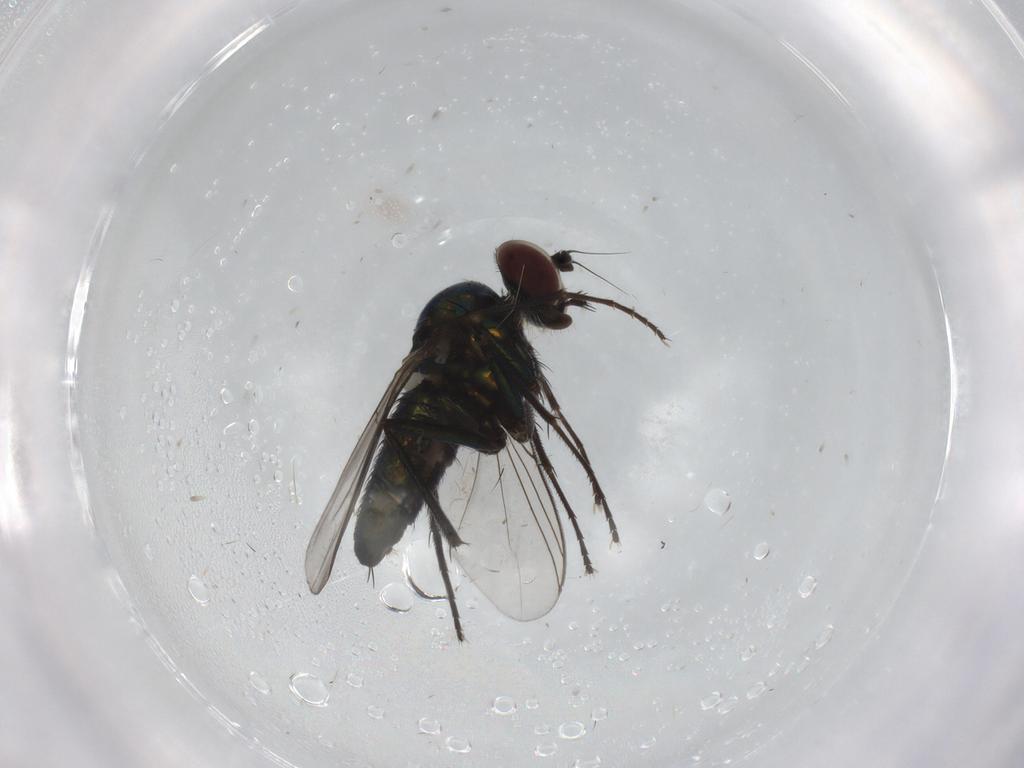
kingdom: Animalia
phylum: Arthropoda
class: Insecta
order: Diptera
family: Dolichopodidae
